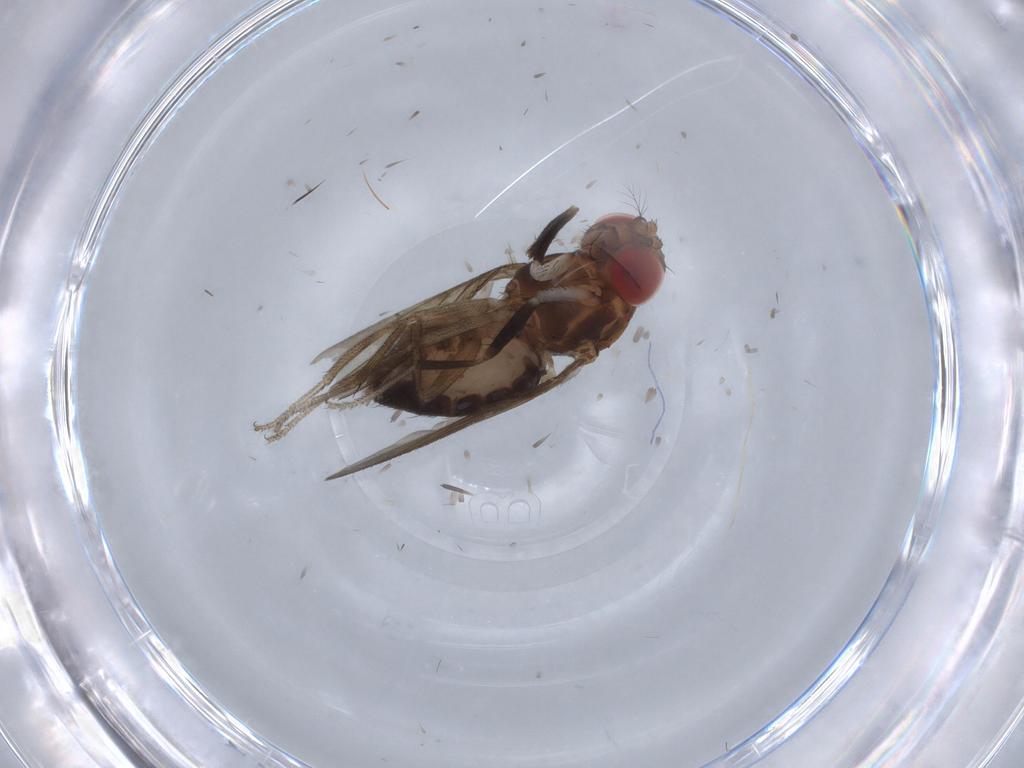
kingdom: Animalia
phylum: Arthropoda
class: Insecta
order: Diptera
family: Drosophilidae
